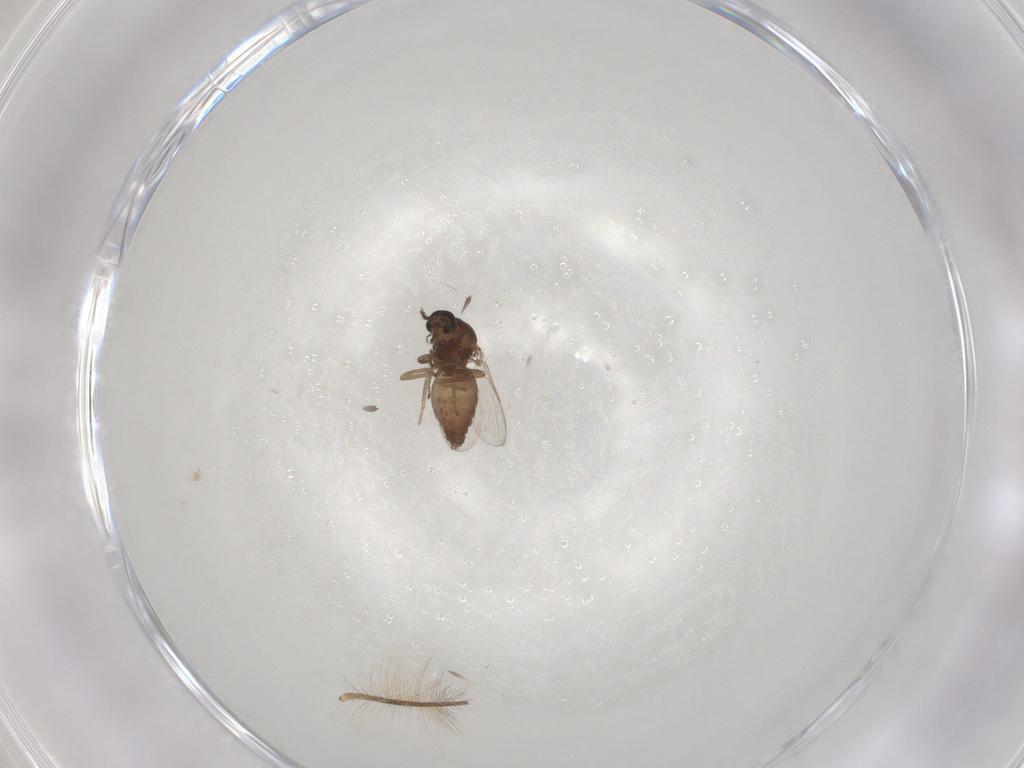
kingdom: Animalia
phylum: Arthropoda
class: Insecta
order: Diptera
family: Ceratopogonidae
